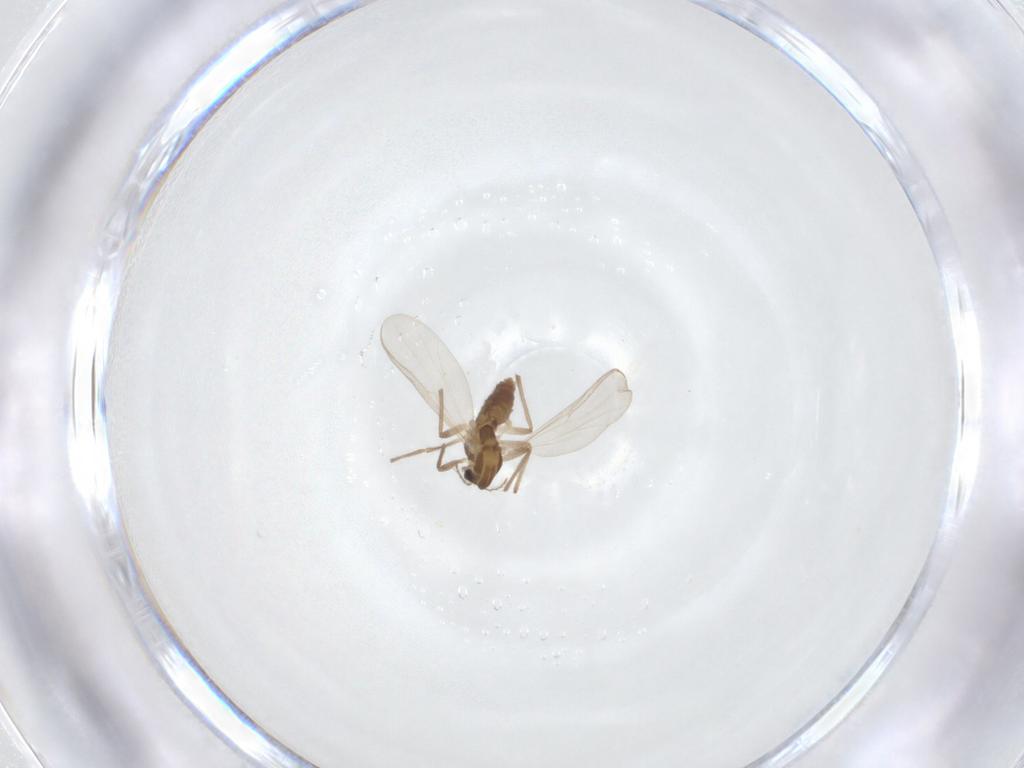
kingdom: Animalia
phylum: Arthropoda
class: Insecta
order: Diptera
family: Chironomidae
